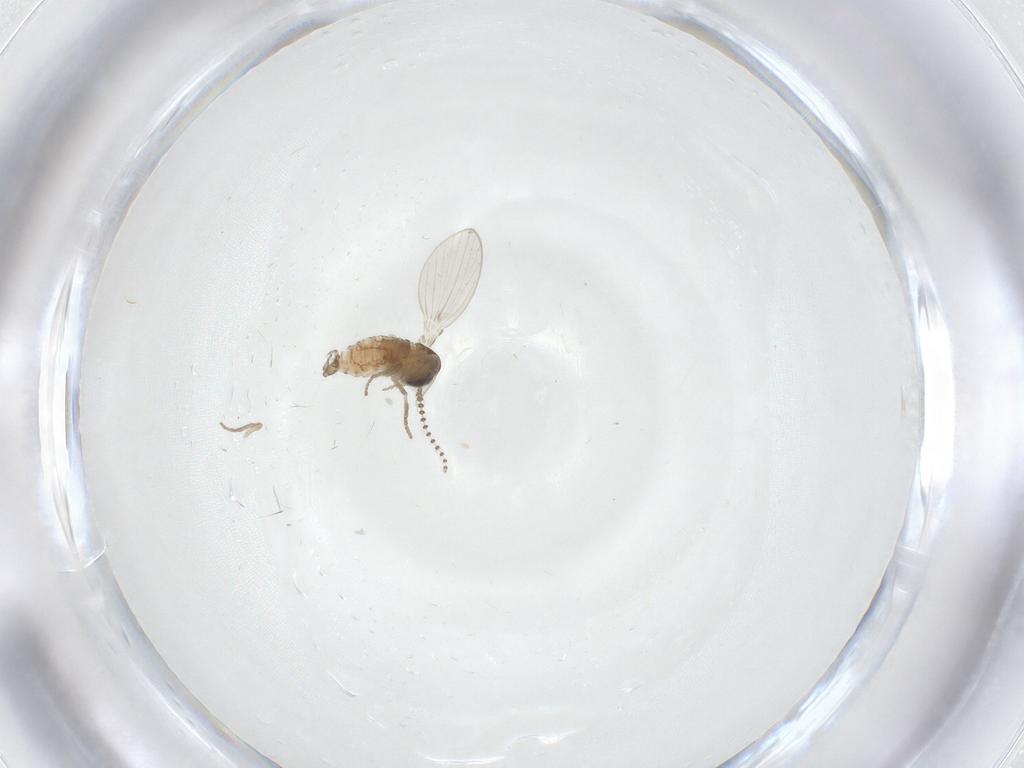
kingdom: Animalia
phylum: Arthropoda
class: Insecta
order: Diptera
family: Psychodidae
